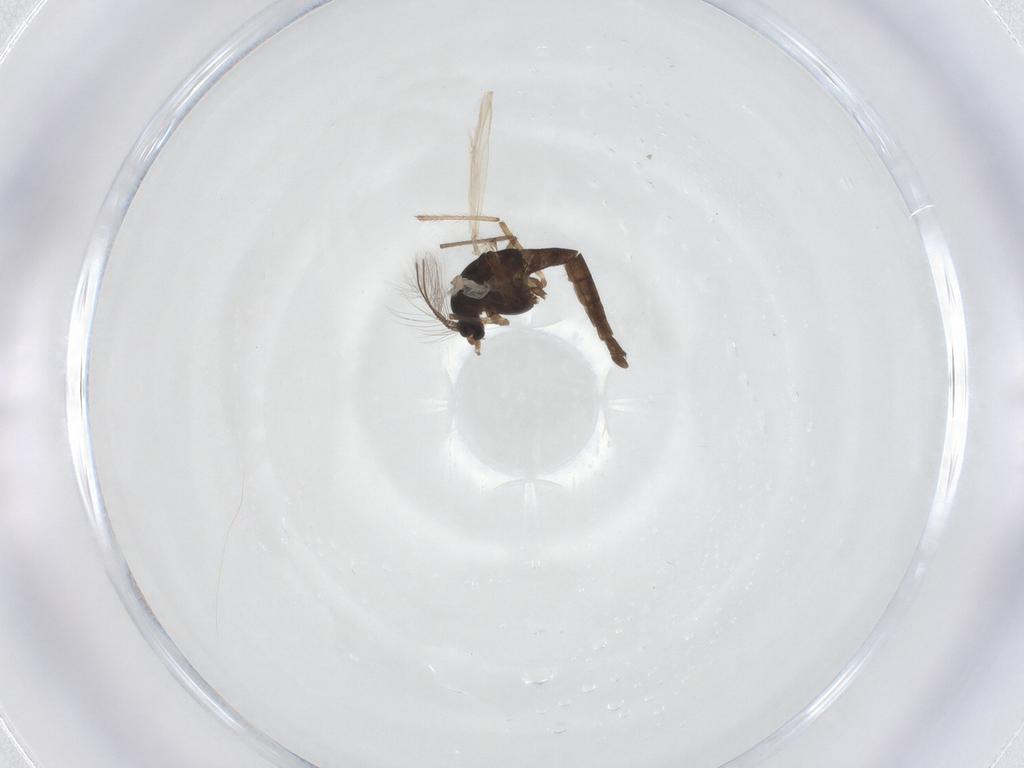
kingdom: Animalia
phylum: Arthropoda
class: Insecta
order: Diptera
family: Chironomidae
